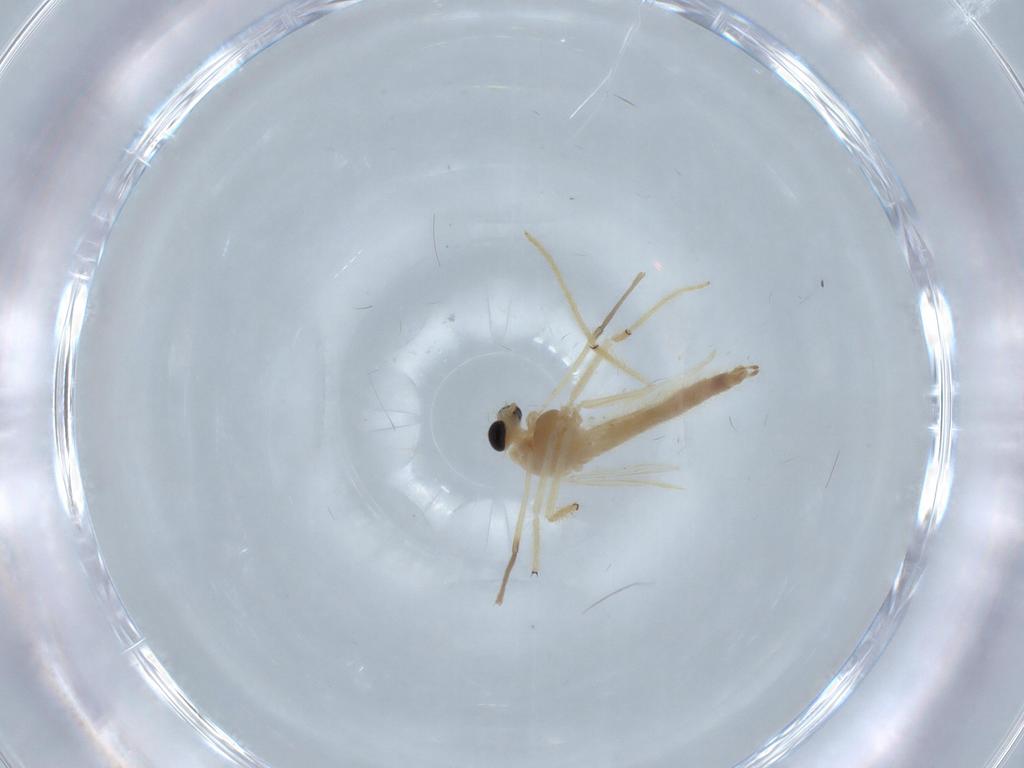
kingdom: Animalia
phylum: Arthropoda
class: Insecta
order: Diptera
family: Chironomidae
